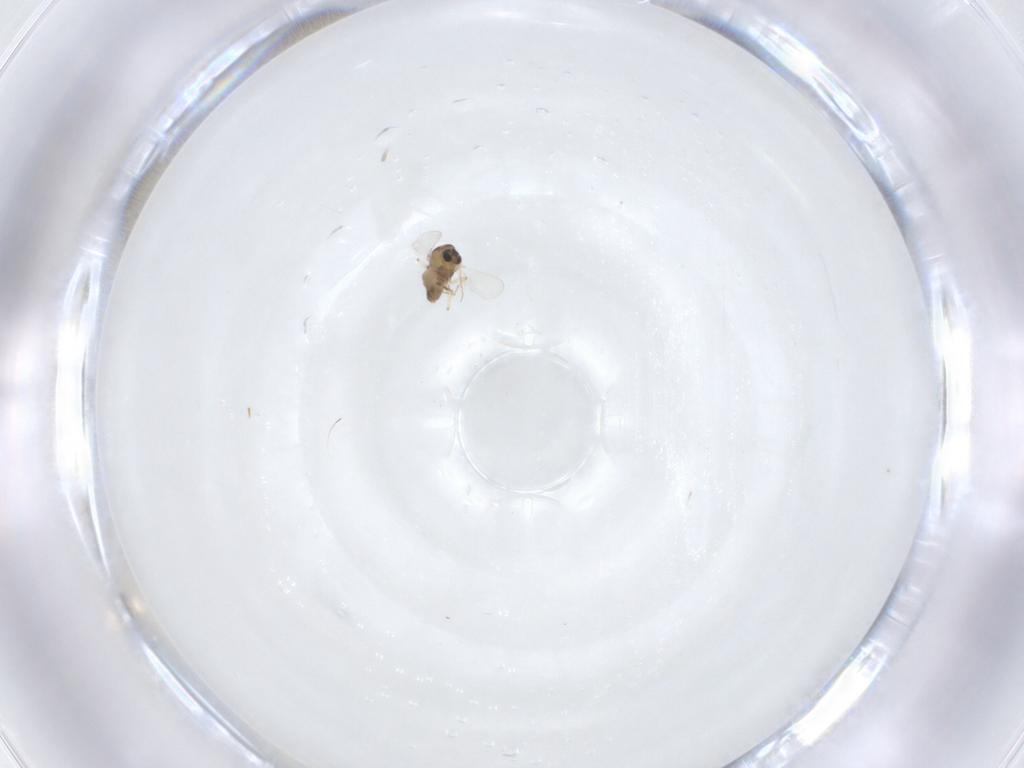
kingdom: Animalia
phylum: Arthropoda
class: Insecta
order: Diptera
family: Chironomidae
